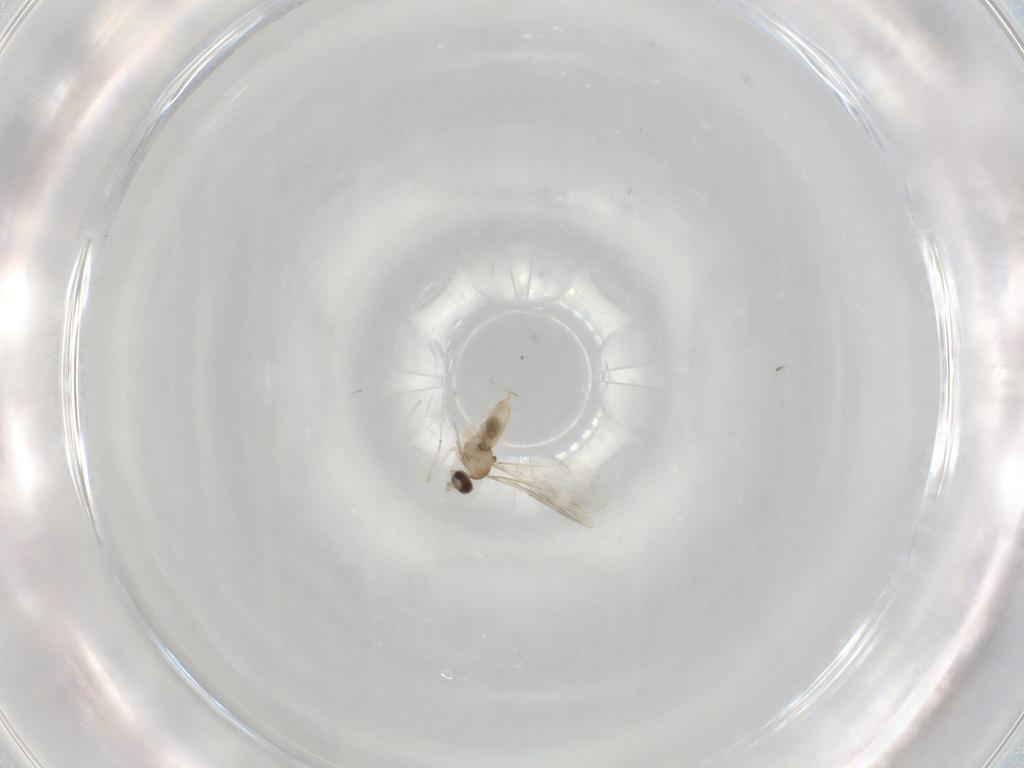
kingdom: Animalia
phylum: Arthropoda
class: Insecta
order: Diptera
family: Cecidomyiidae
